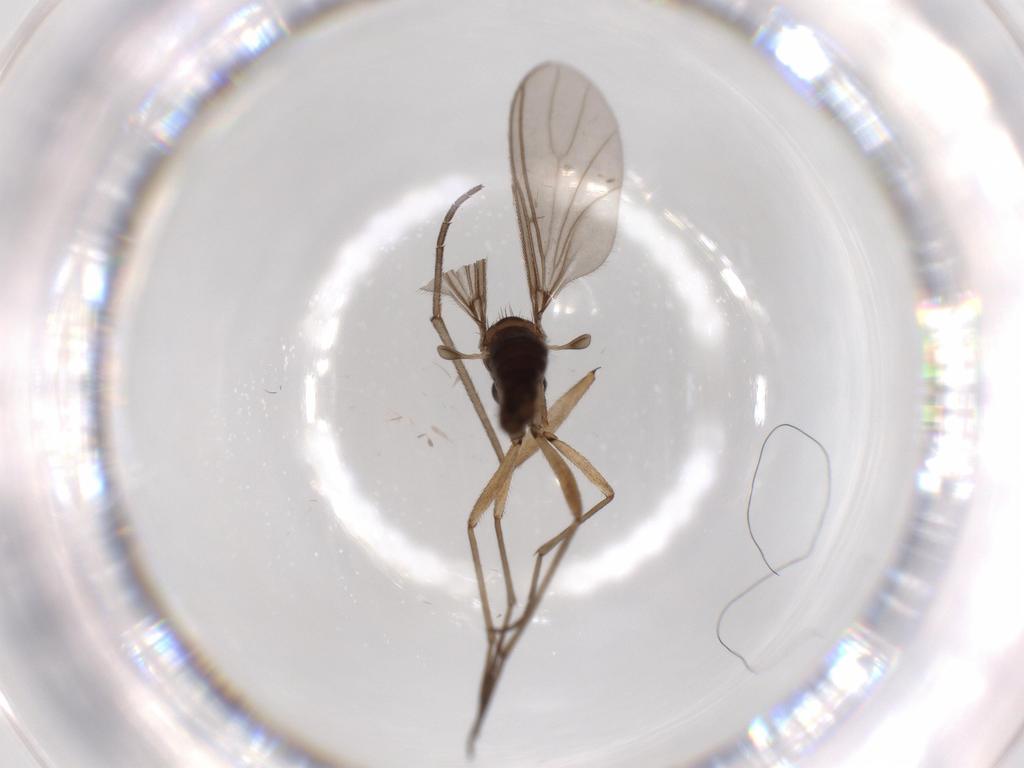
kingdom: Animalia
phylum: Arthropoda
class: Insecta
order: Diptera
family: Sciaridae
